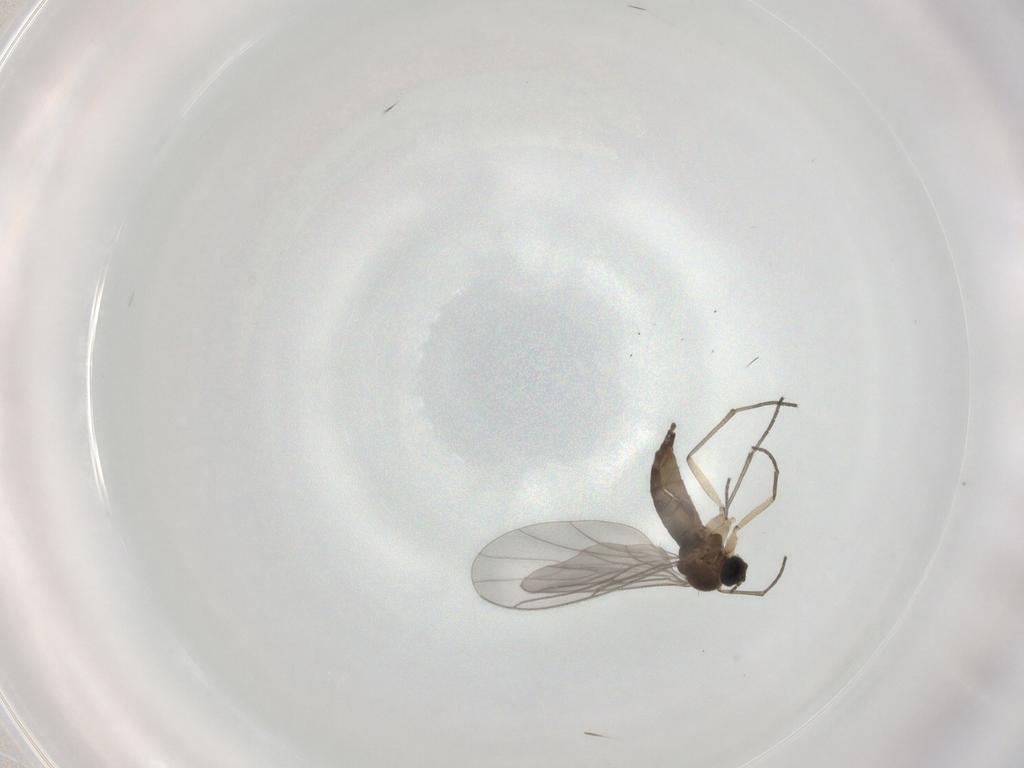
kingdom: Animalia
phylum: Arthropoda
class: Insecta
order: Diptera
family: Sciaridae
